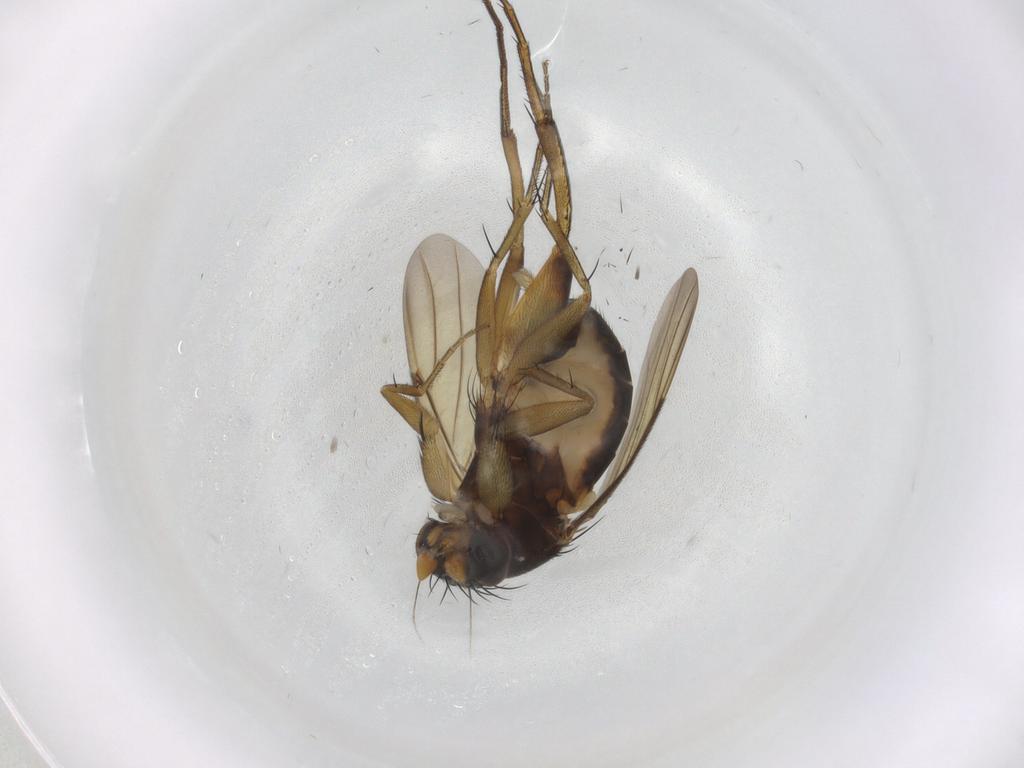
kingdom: Animalia
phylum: Arthropoda
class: Insecta
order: Diptera
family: Phoridae
